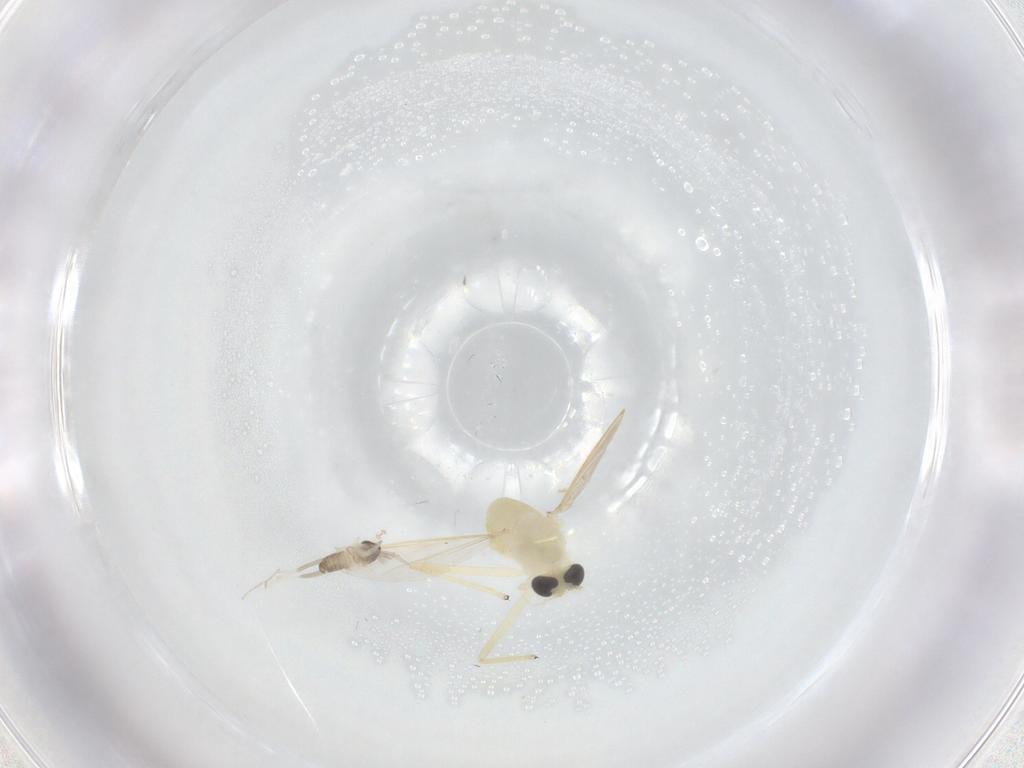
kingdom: Animalia
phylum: Arthropoda
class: Insecta
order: Diptera
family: Cecidomyiidae
